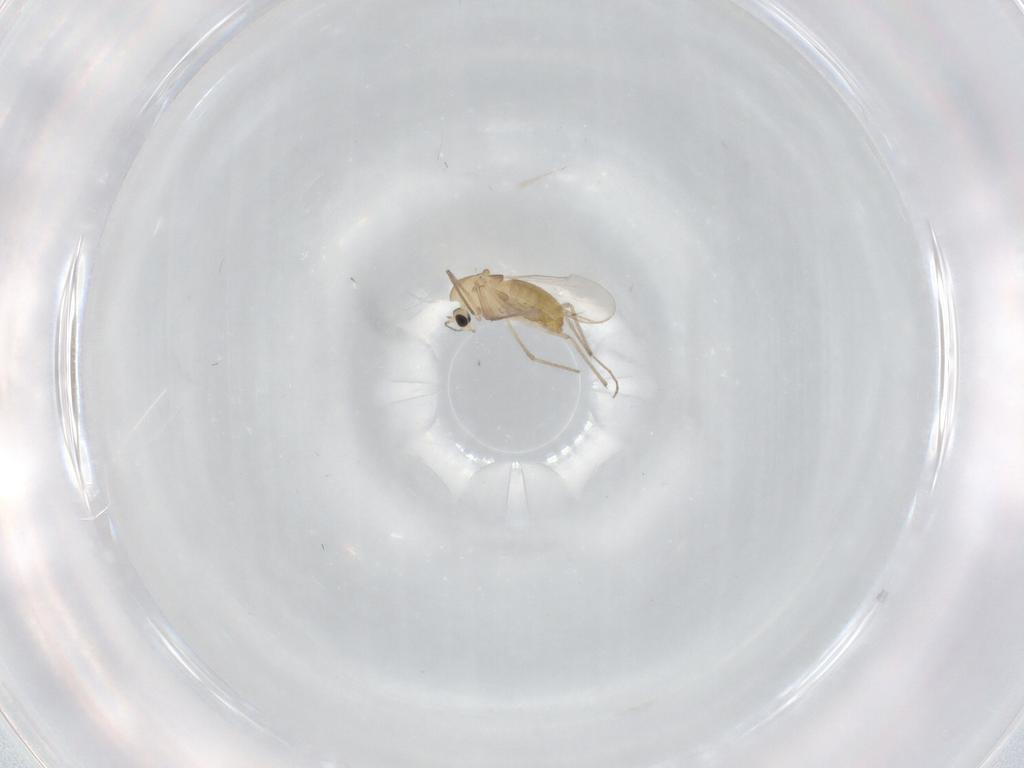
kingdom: Animalia
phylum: Arthropoda
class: Insecta
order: Diptera
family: Chironomidae
